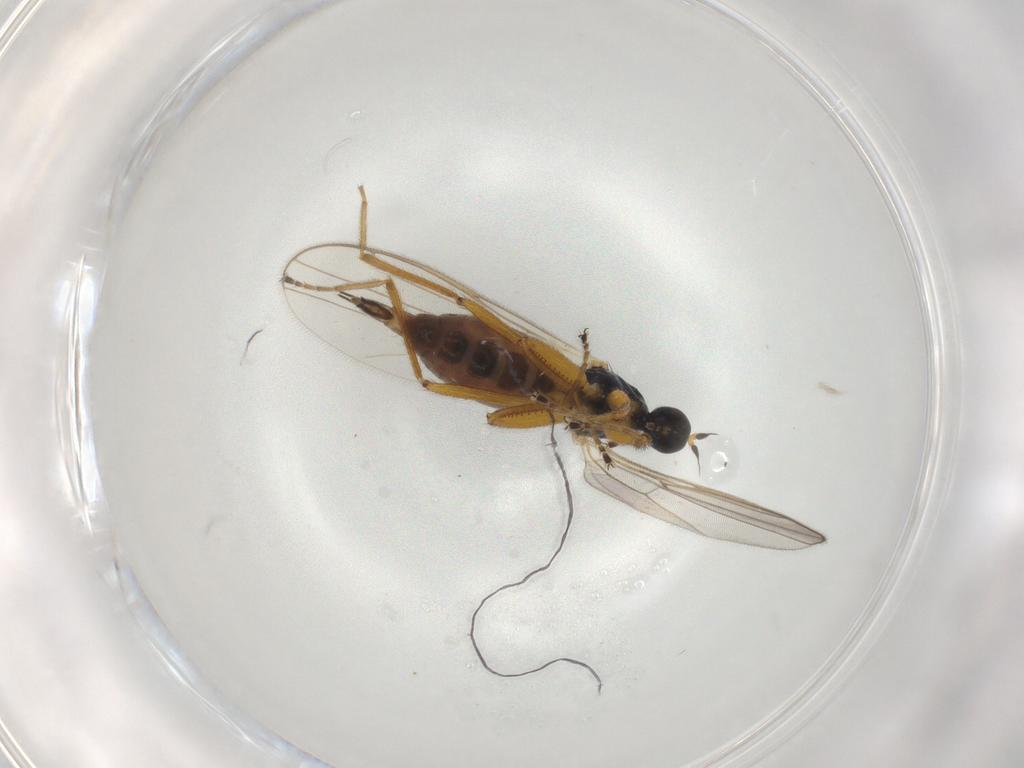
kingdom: Animalia
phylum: Arthropoda
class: Insecta
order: Diptera
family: Hybotidae
